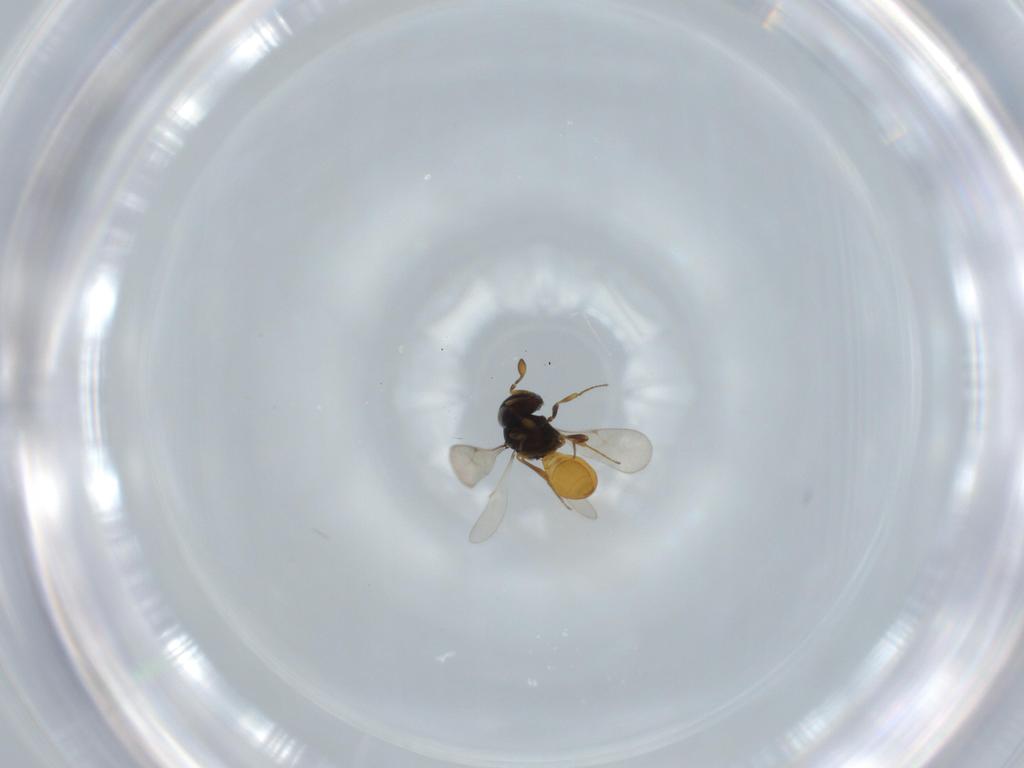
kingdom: Animalia
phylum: Arthropoda
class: Insecta
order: Hymenoptera
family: Scelionidae
